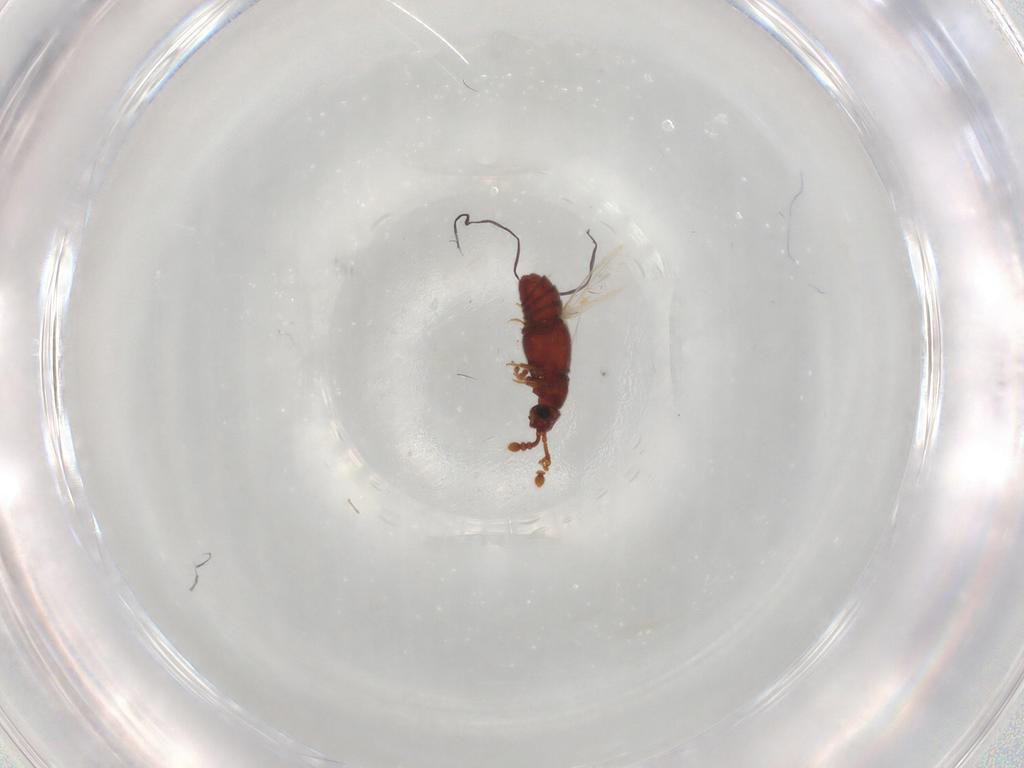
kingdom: Animalia
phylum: Arthropoda
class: Insecta
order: Coleoptera
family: Staphylinidae
